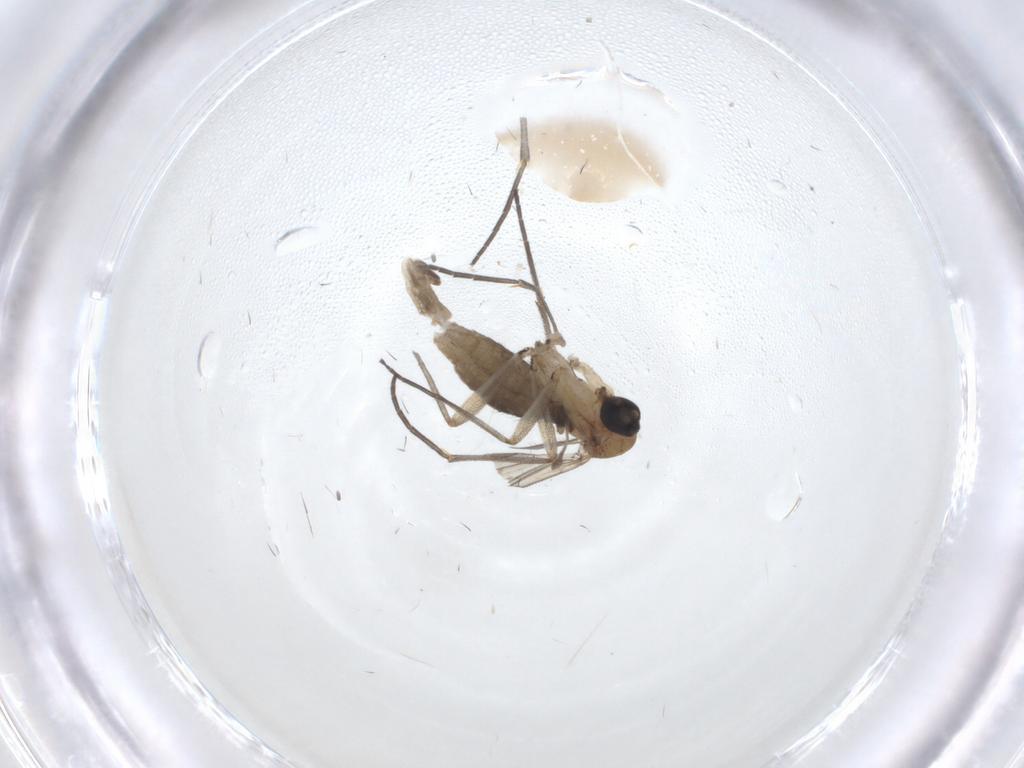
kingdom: Animalia
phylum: Arthropoda
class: Insecta
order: Diptera
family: Sciaridae
